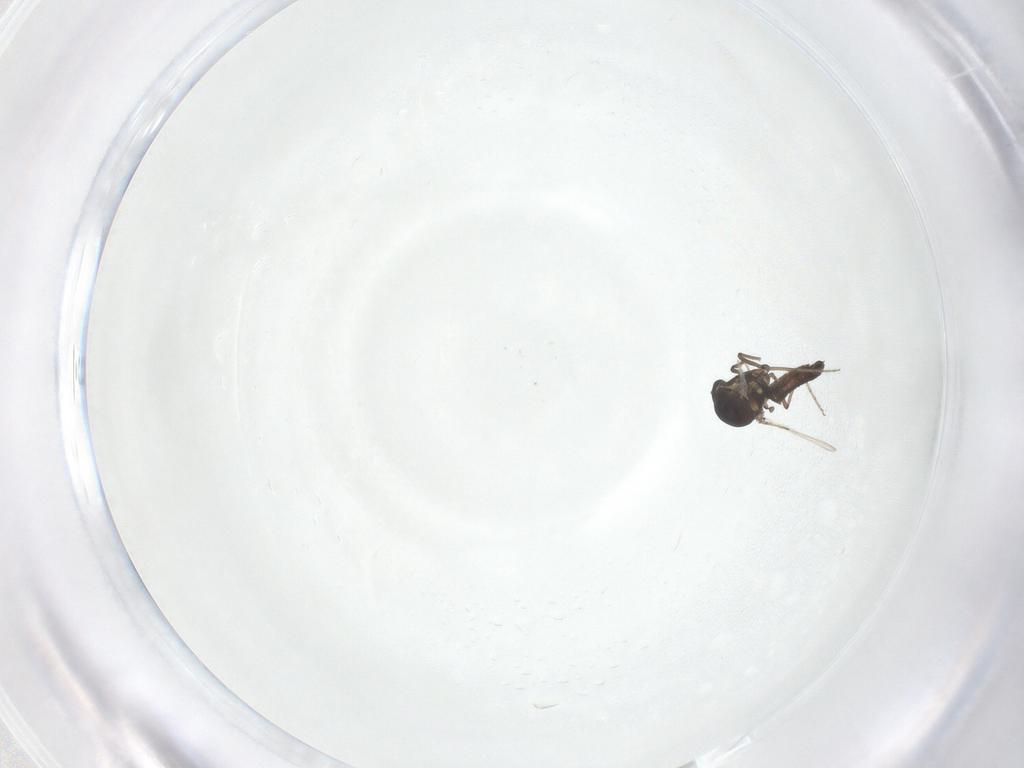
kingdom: Animalia
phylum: Arthropoda
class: Insecta
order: Diptera
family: Ceratopogonidae
